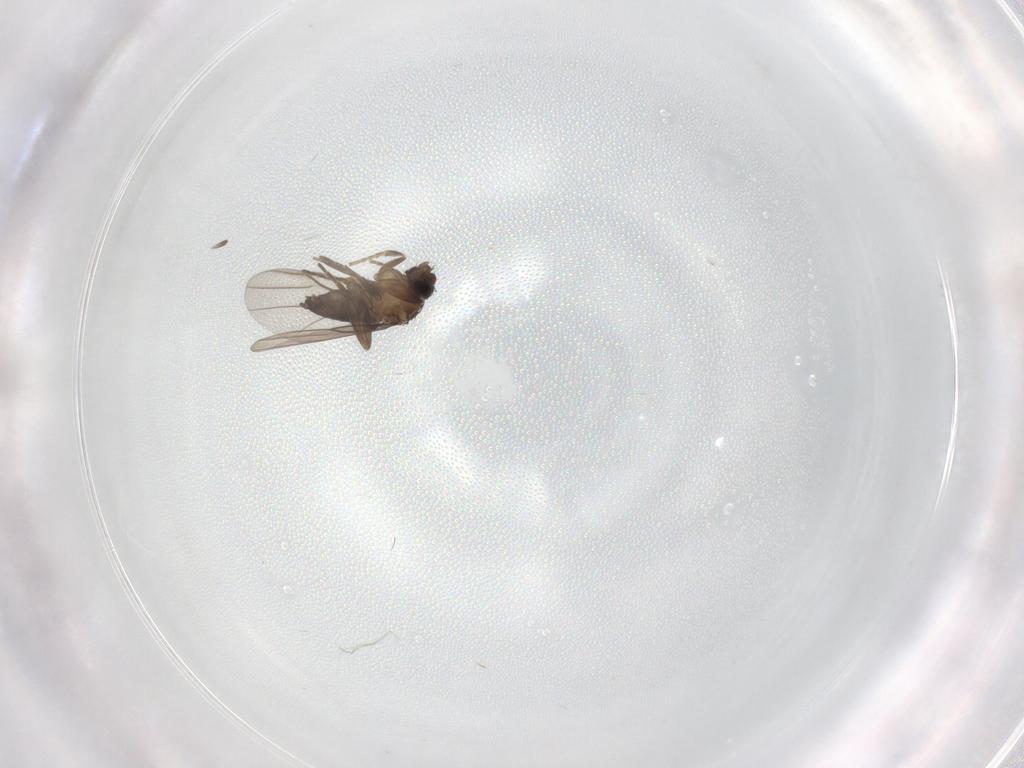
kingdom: Animalia
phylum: Arthropoda
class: Insecta
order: Diptera
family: Phoridae
